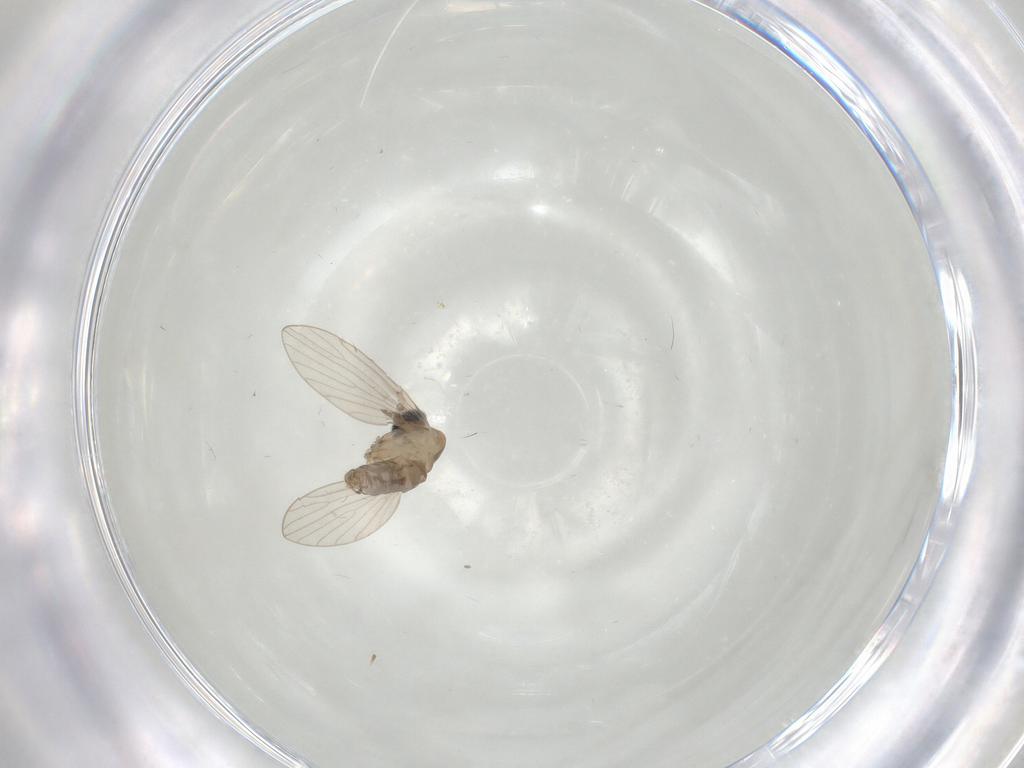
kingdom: Animalia
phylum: Arthropoda
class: Insecta
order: Diptera
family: Psychodidae
